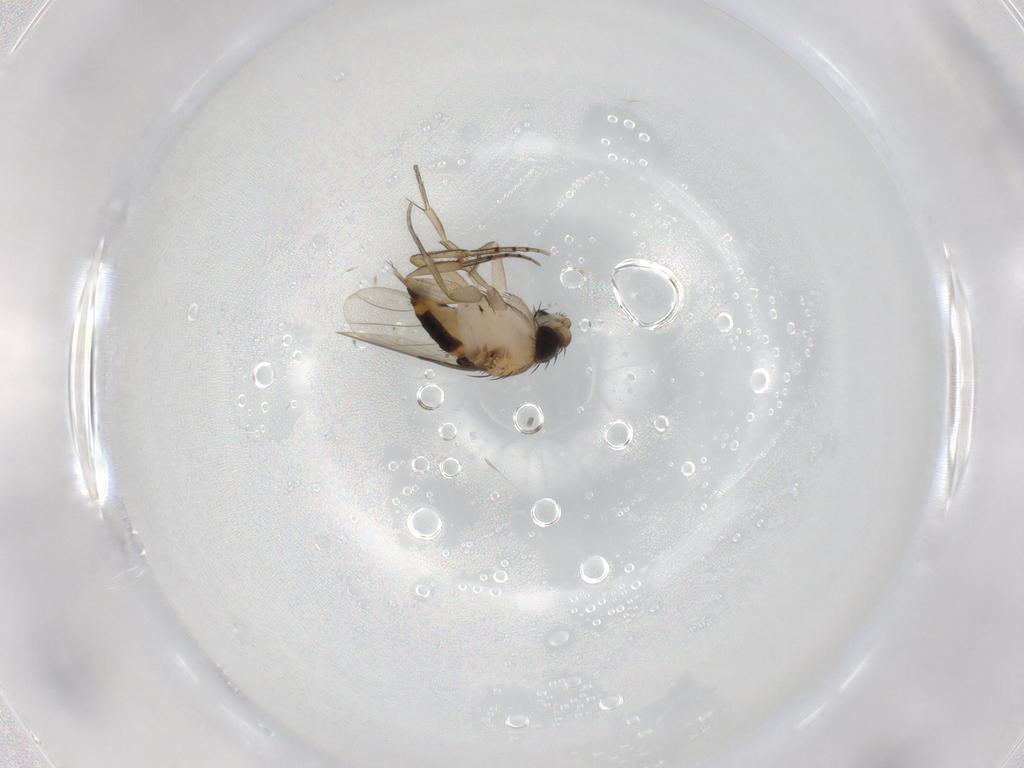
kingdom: Animalia
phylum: Arthropoda
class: Insecta
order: Diptera
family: Phoridae
